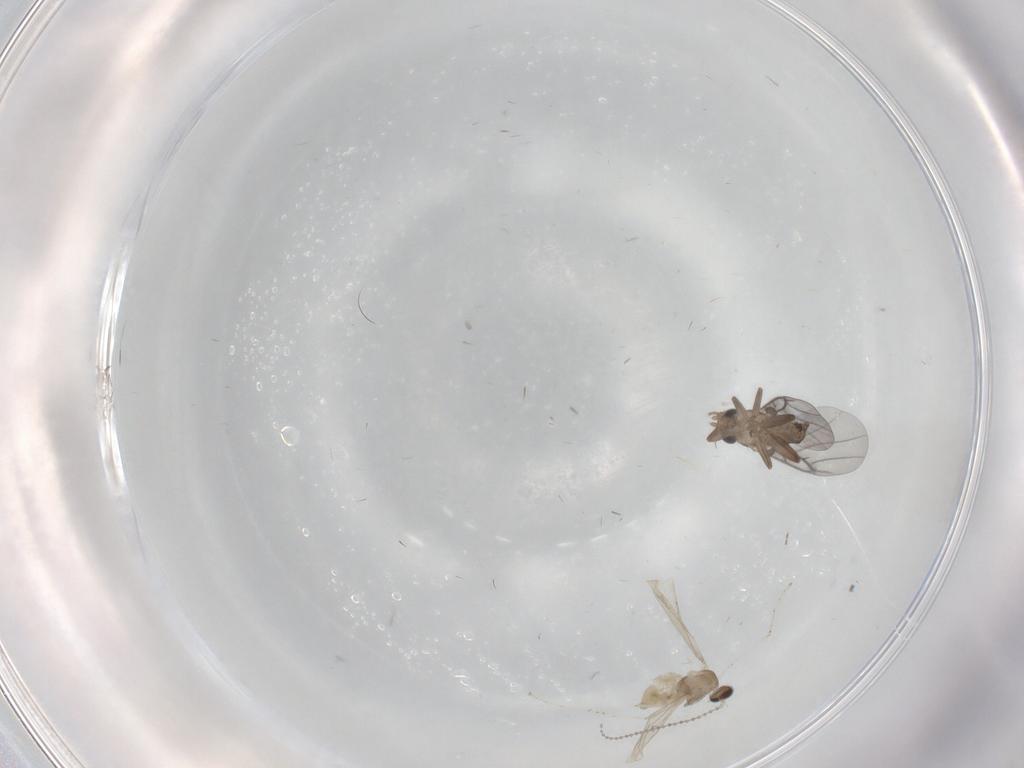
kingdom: Animalia
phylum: Arthropoda
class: Insecta
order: Diptera
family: Cecidomyiidae
